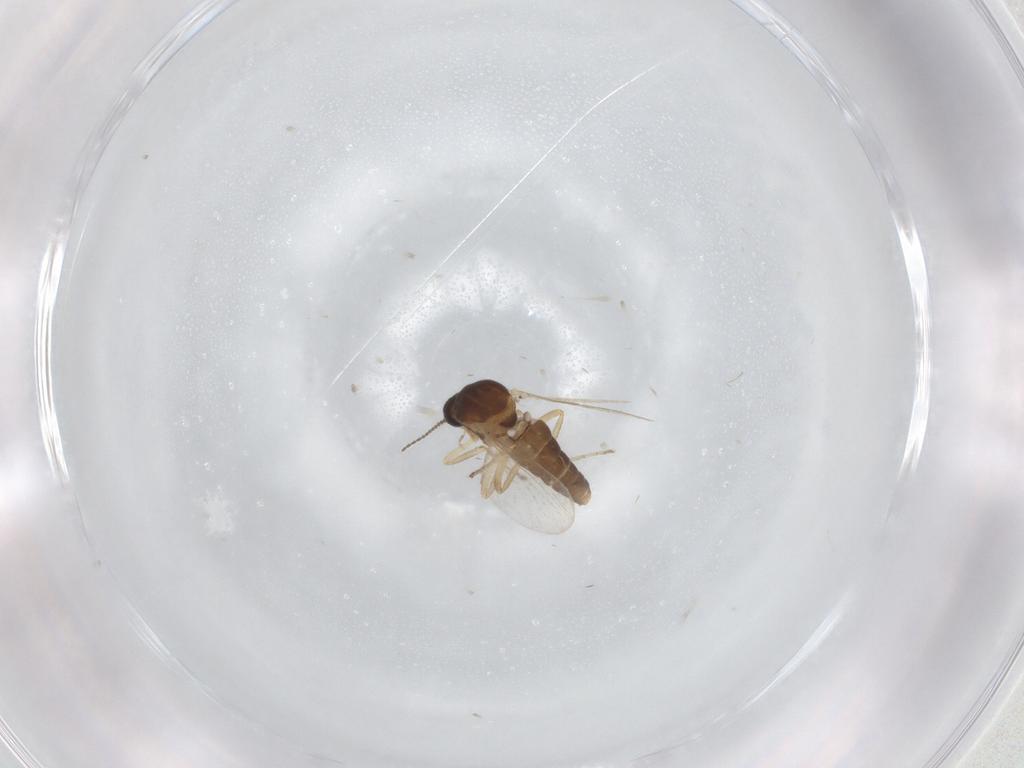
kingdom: Animalia
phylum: Arthropoda
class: Insecta
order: Diptera
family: Ceratopogonidae
